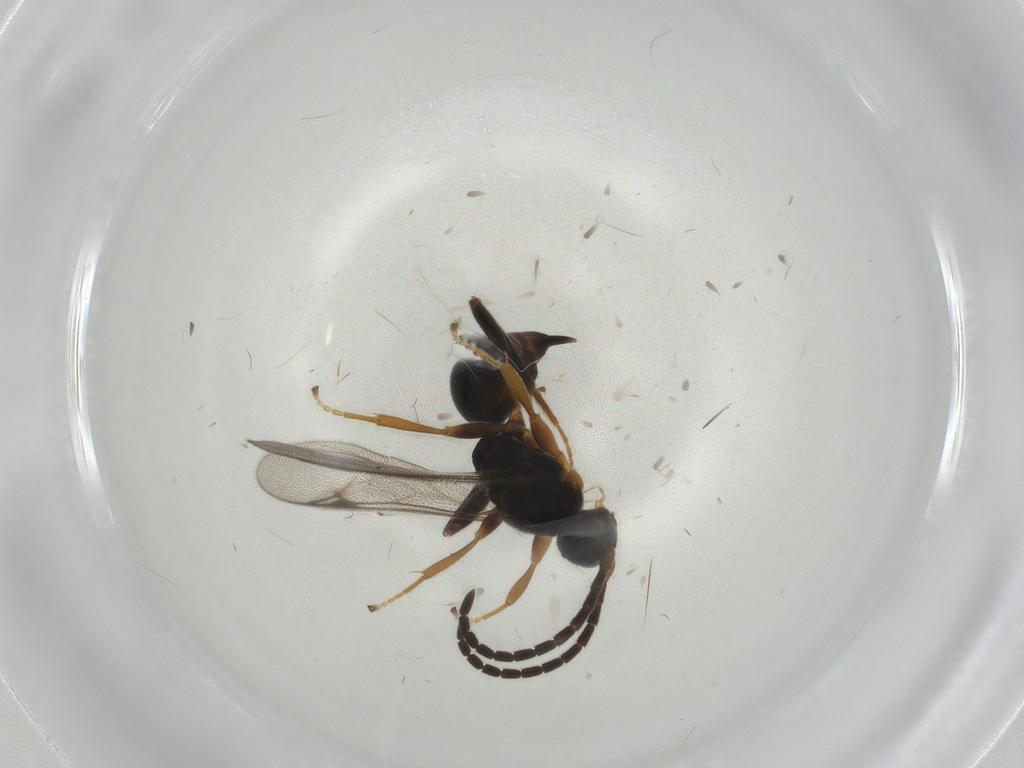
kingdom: Animalia
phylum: Arthropoda
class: Insecta
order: Hymenoptera
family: Proctotrupidae
